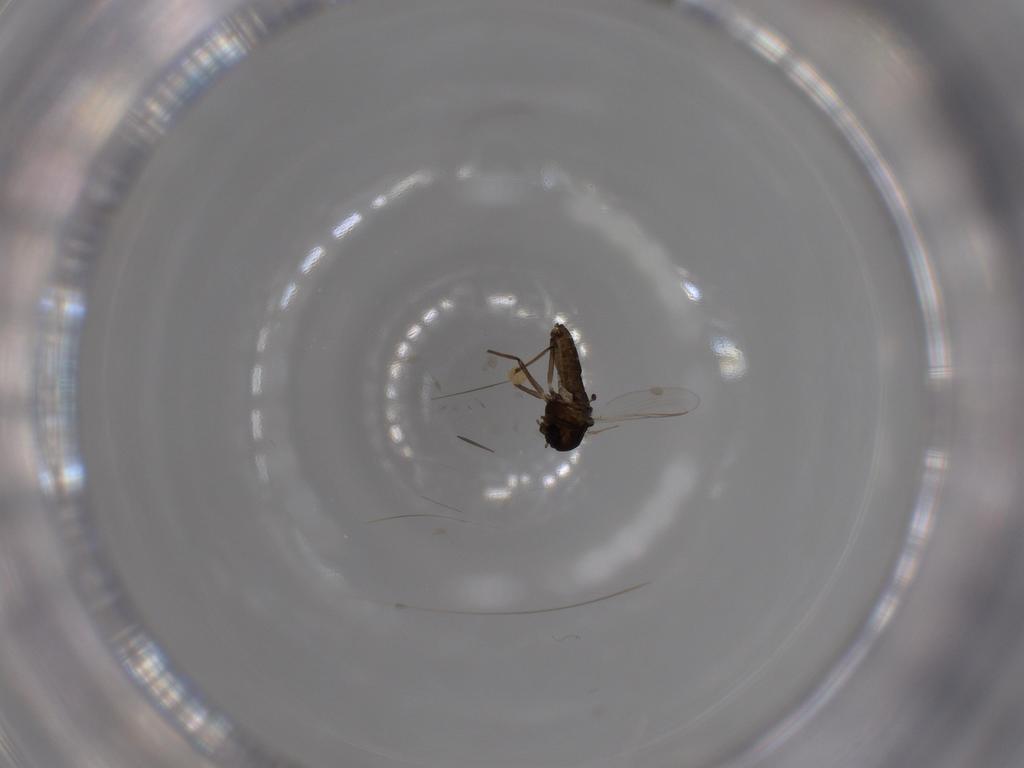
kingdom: Animalia
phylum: Arthropoda
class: Insecta
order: Diptera
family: Chironomidae
